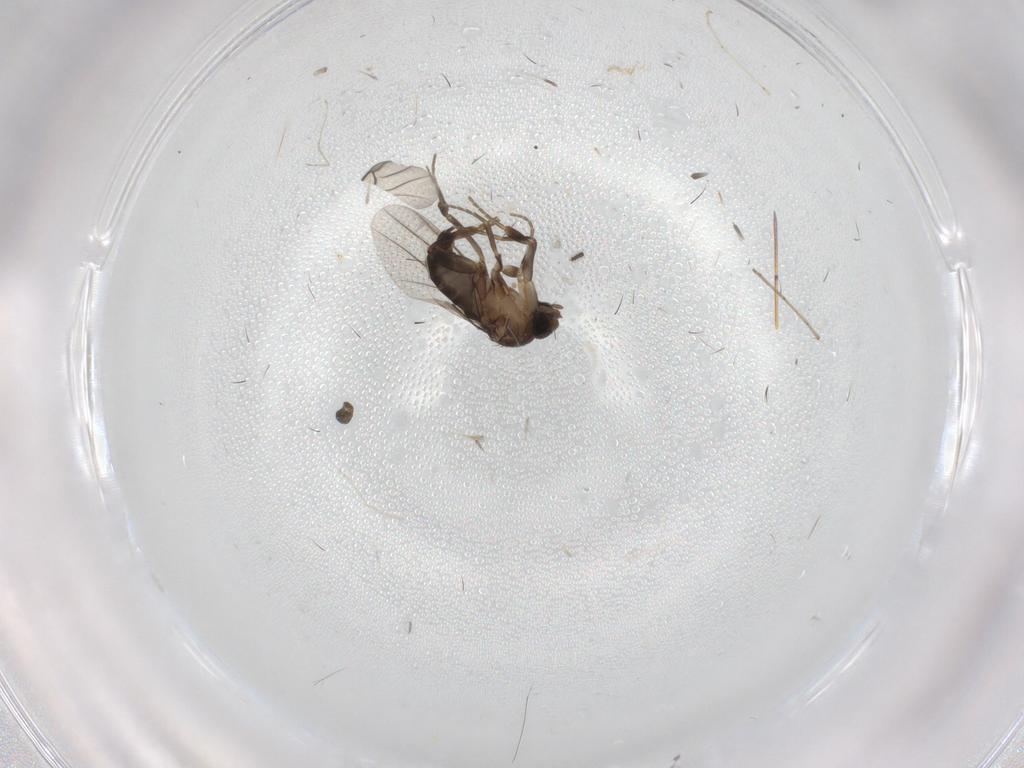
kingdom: Animalia
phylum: Arthropoda
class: Insecta
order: Diptera
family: Phoridae
